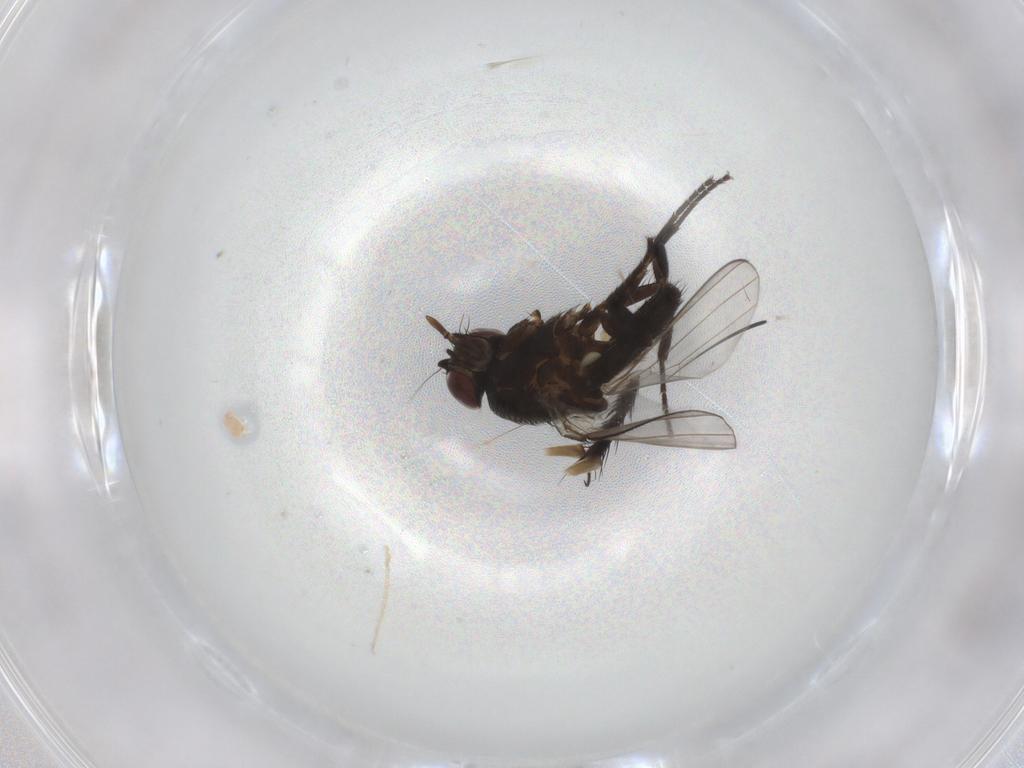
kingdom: Animalia
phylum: Arthropoda
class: Insecta
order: Diptera
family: Milichiidae
